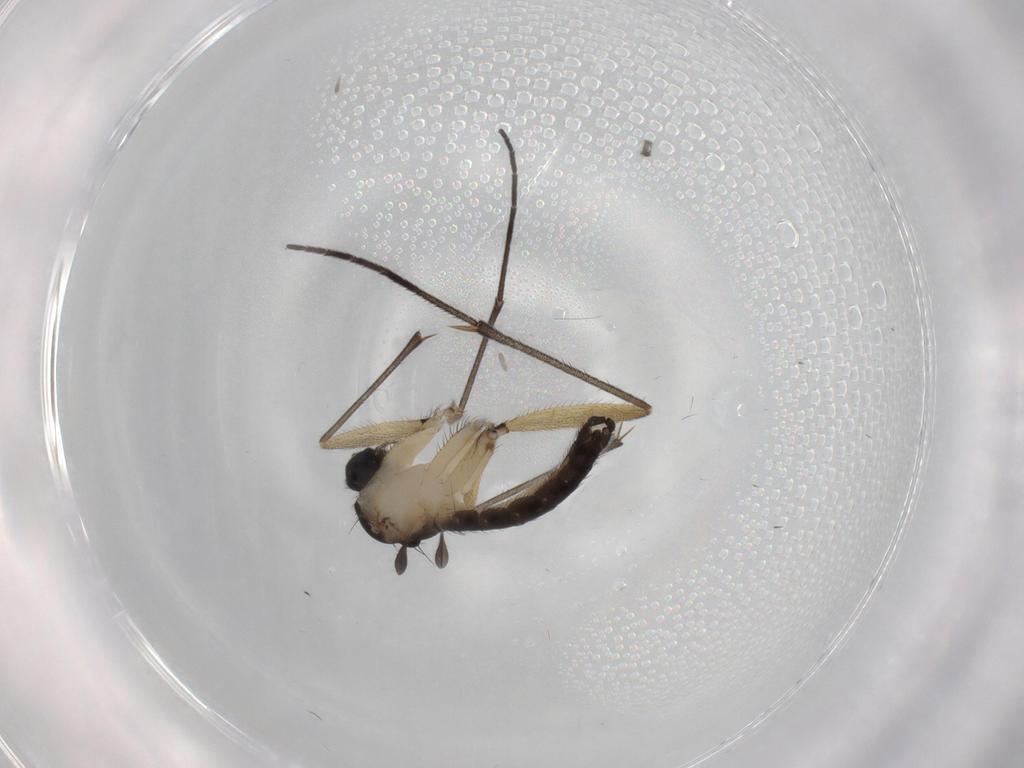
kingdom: Animalia
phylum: Arthropoda
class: Insecta
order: Diptera
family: Sciaridae
